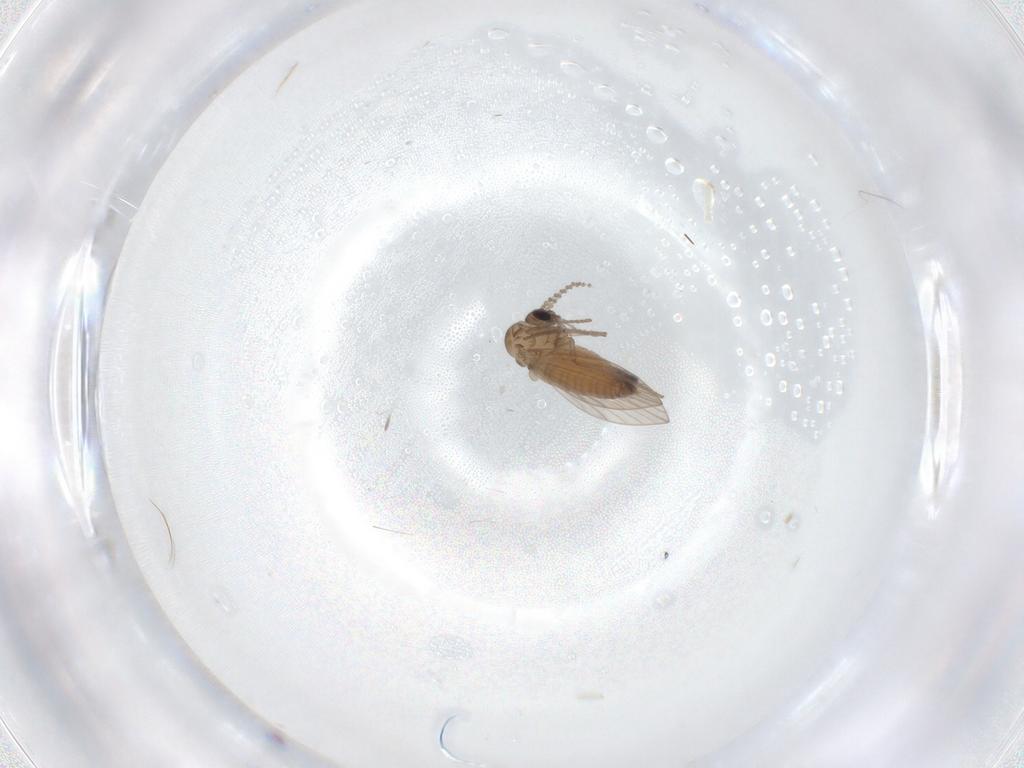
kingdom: Animalia
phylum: Arthropoda
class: Insecta
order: Diptera
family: Psychodidae
